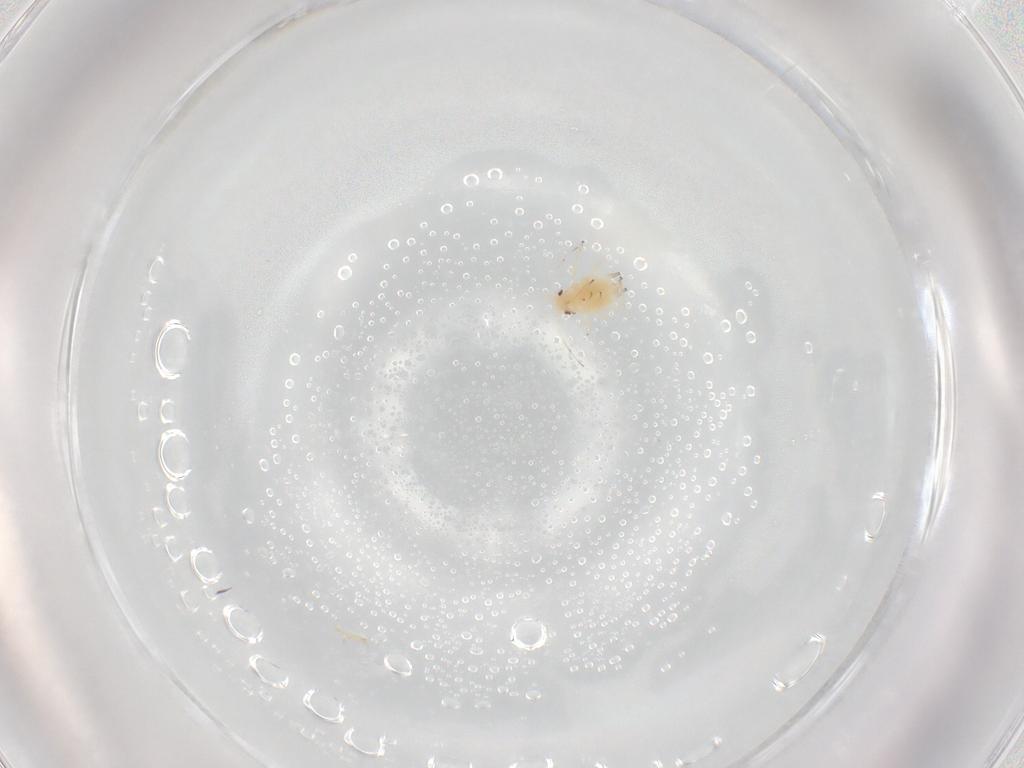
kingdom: Animalia
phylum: Arthropoda
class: Insecta
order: Hemiptera
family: Aphididae
